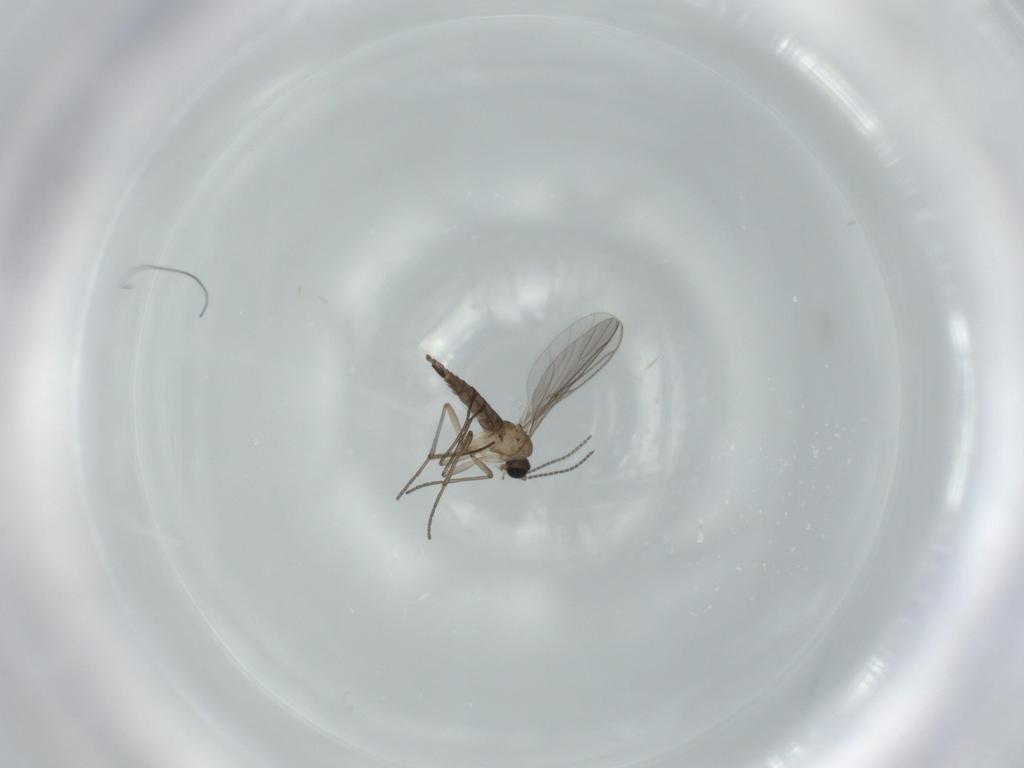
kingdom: Animalia
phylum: Arthropoda
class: Insecta
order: Diptera
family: Sciaridae
